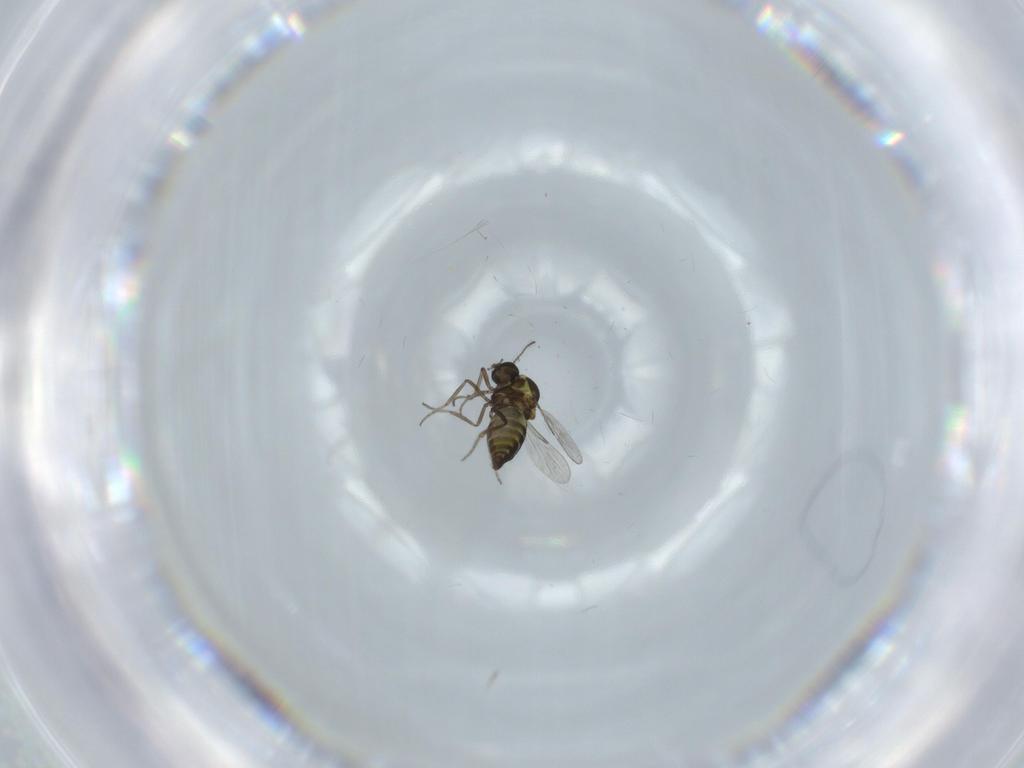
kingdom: Animalia
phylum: Arthropoda
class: Insecta
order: Diptera
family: Ceratopogonidae
